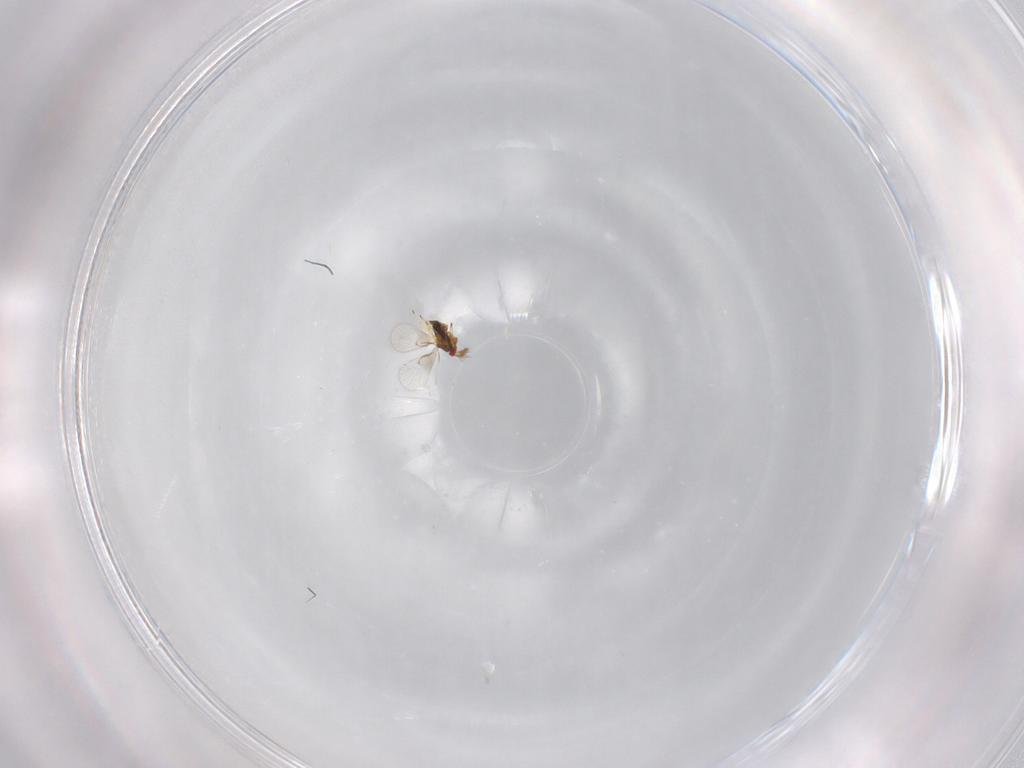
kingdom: Animalia
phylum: Arthropoda
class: Insecta
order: Hymenoptera
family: Trichogrammatidae
